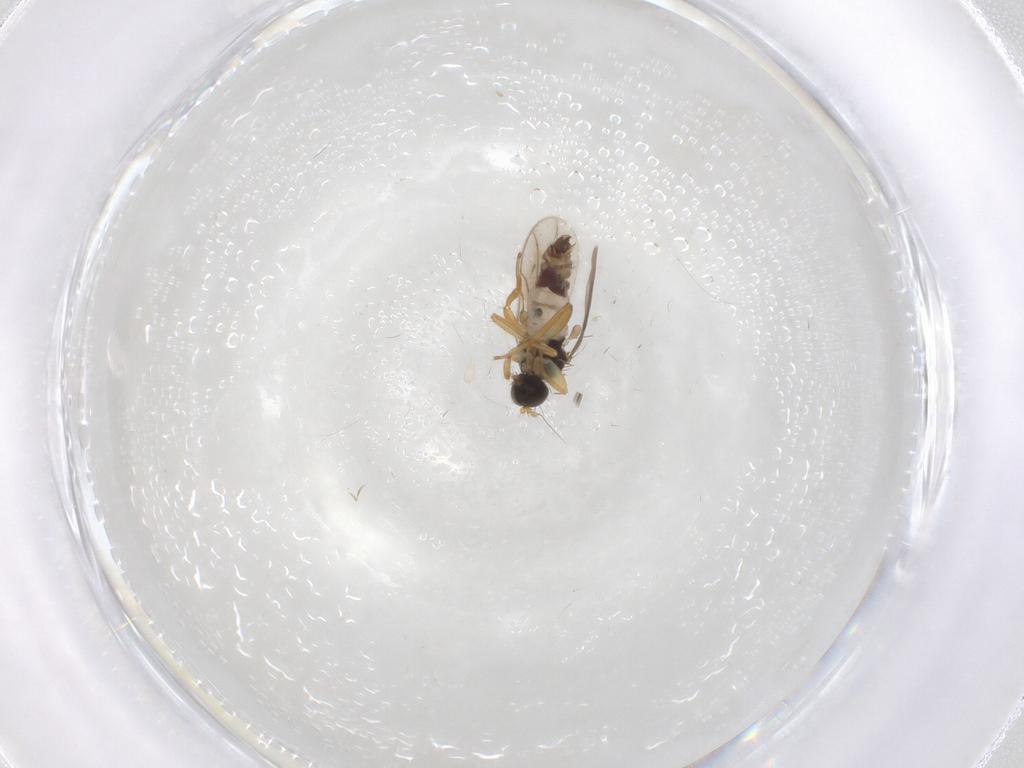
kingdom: Animalia
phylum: Arthropoda
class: Insecta
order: Diptera
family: Hybotidae
